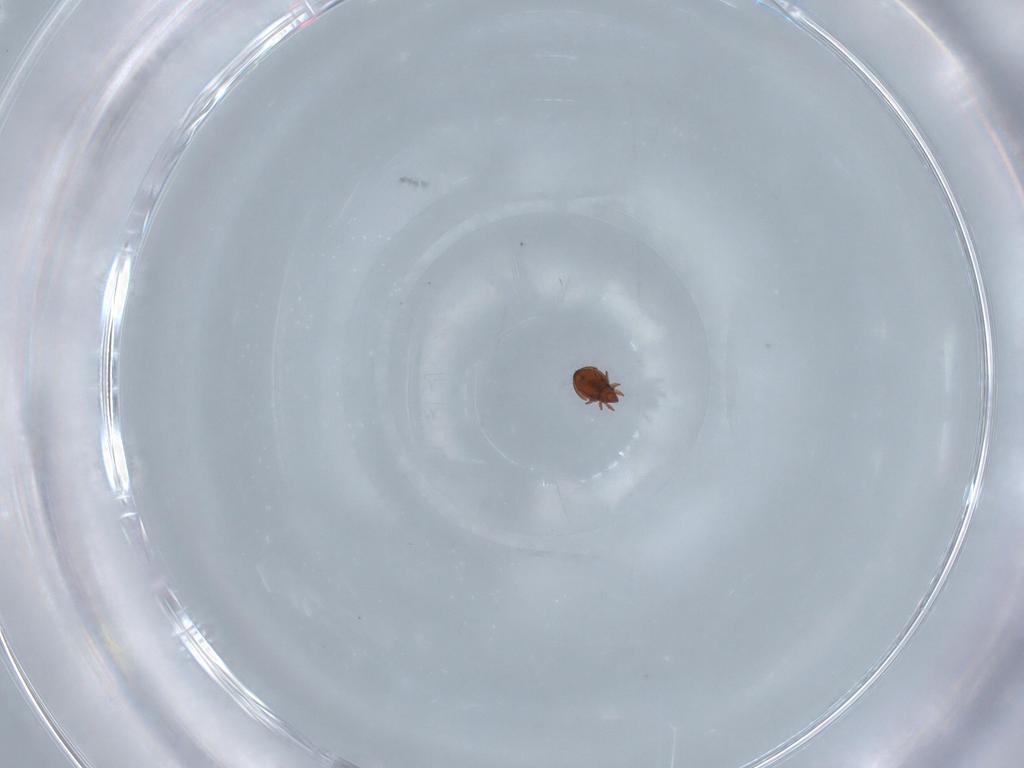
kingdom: Animalia
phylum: Arthropoda
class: Arachnida
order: Sarcoptiformes
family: Oribatulidae
